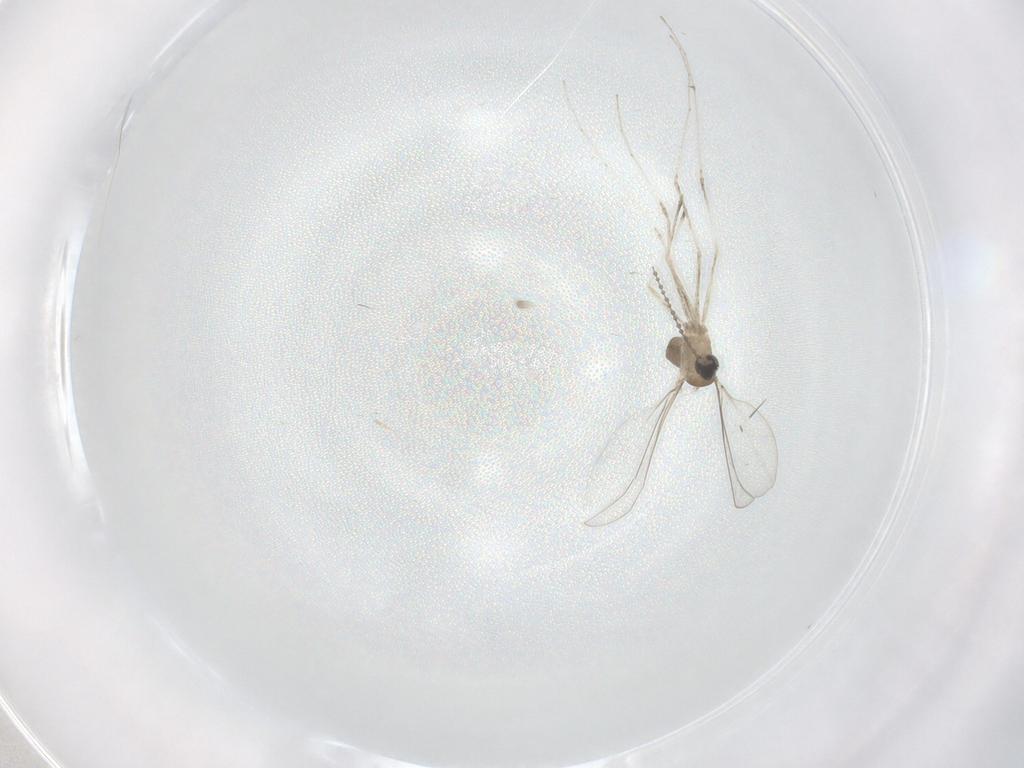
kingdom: Animalia
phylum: Arthropoda
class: Insecta
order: Diptera
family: Cecidomyiidae
